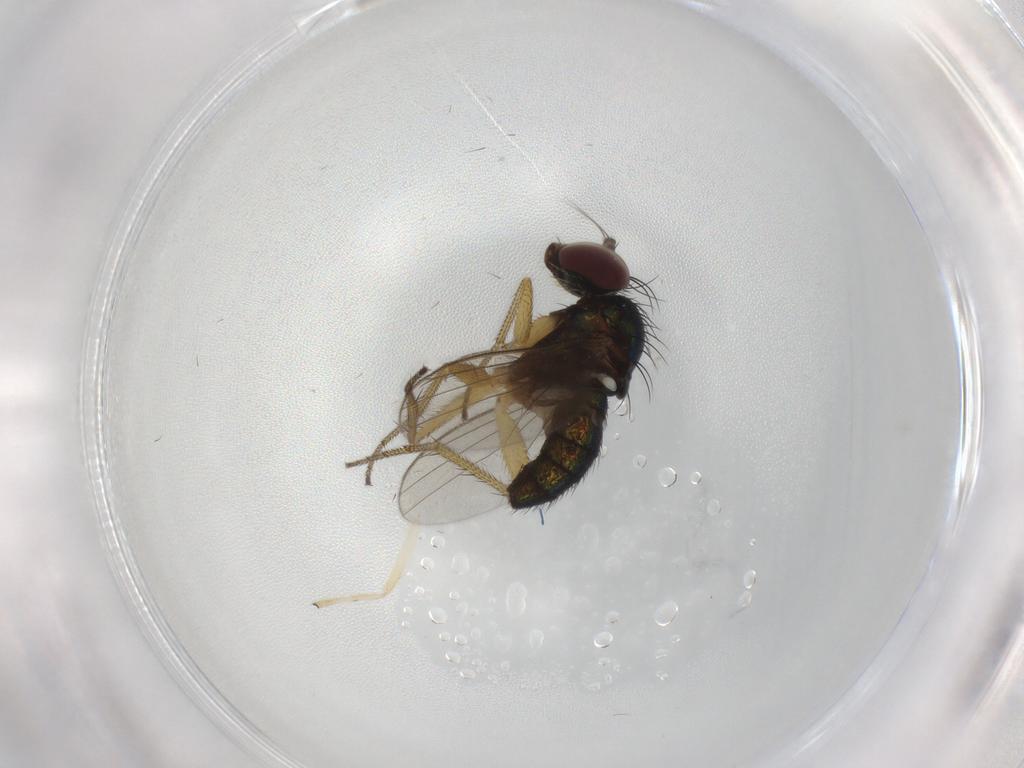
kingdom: Animalia
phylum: Arthropoda
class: Insecta
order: Diptera
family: Dolichopodidae
